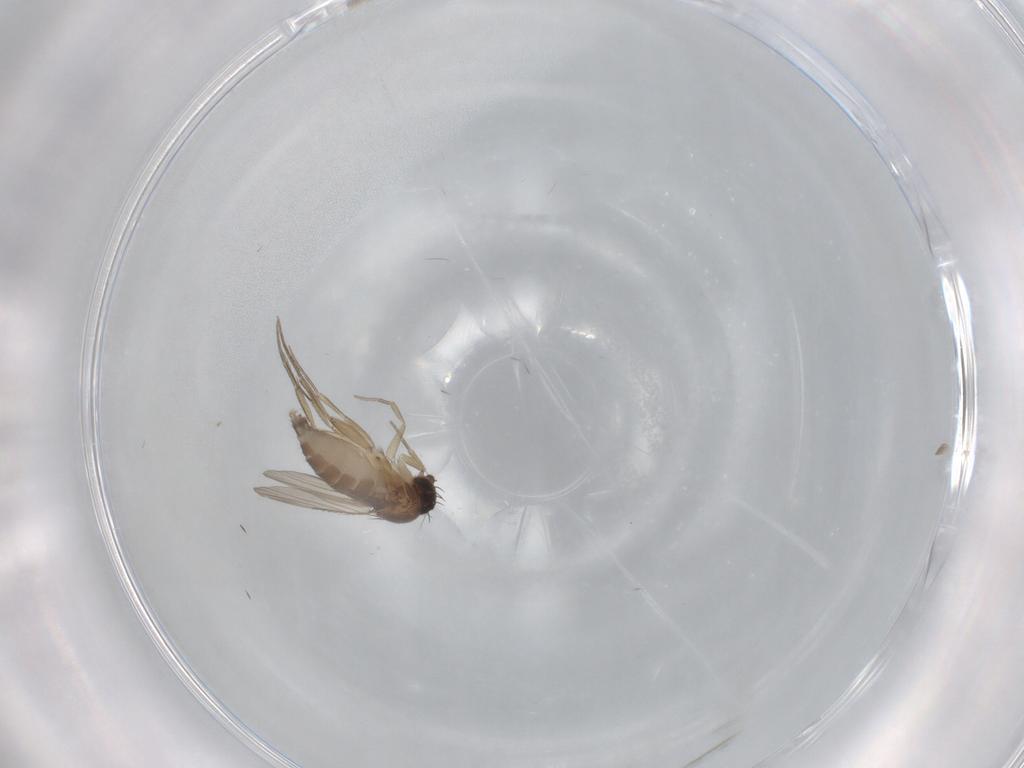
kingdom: Animalia
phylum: Arthropoda
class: Insecta
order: Diptera
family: Phoridae
